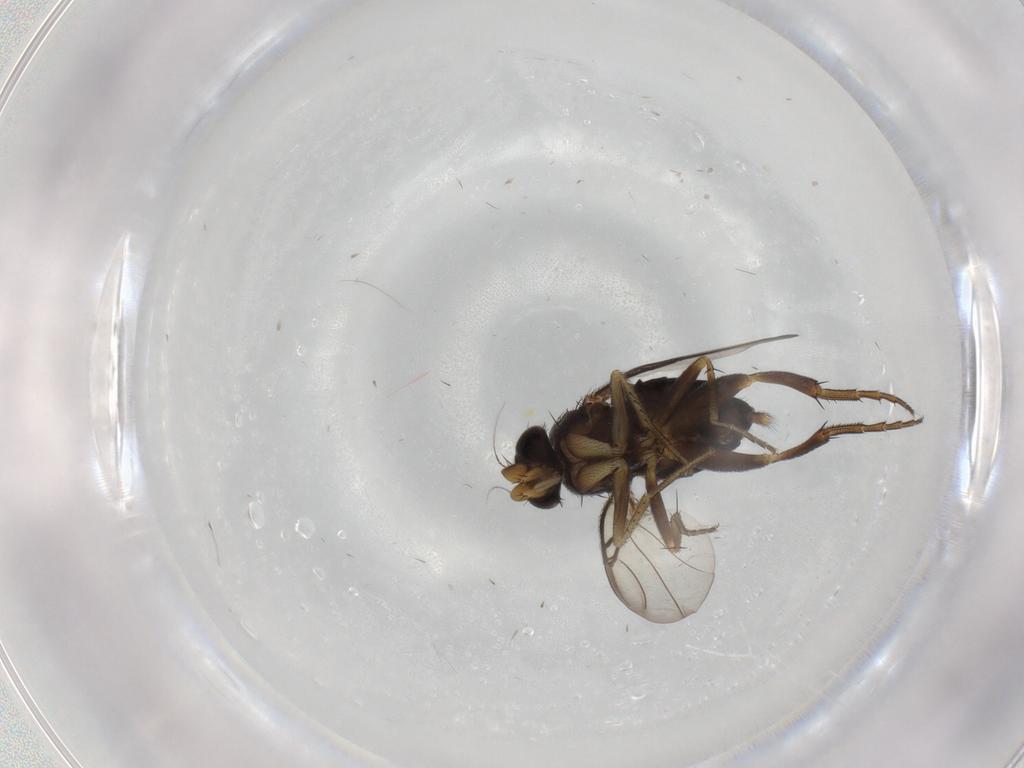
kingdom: Animalia
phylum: Arthropoda
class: Insecta
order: Diptera
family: Phoridae
